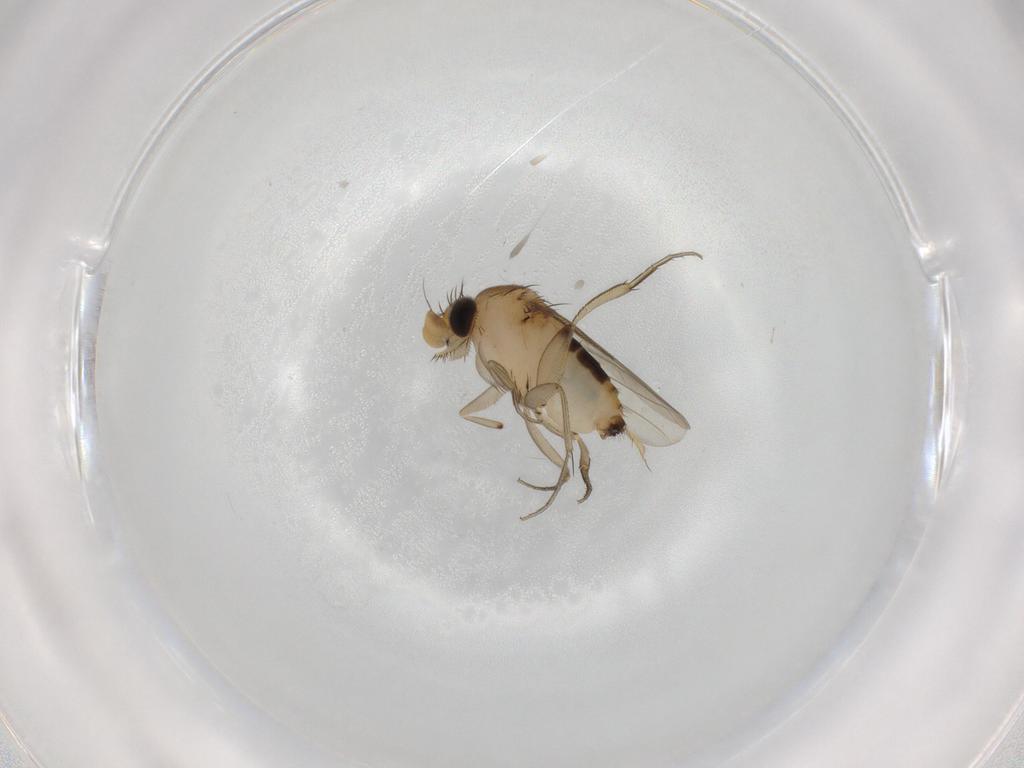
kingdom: Animalia
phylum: Arthropoda
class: Insecta
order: Diptera
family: Phoridae
